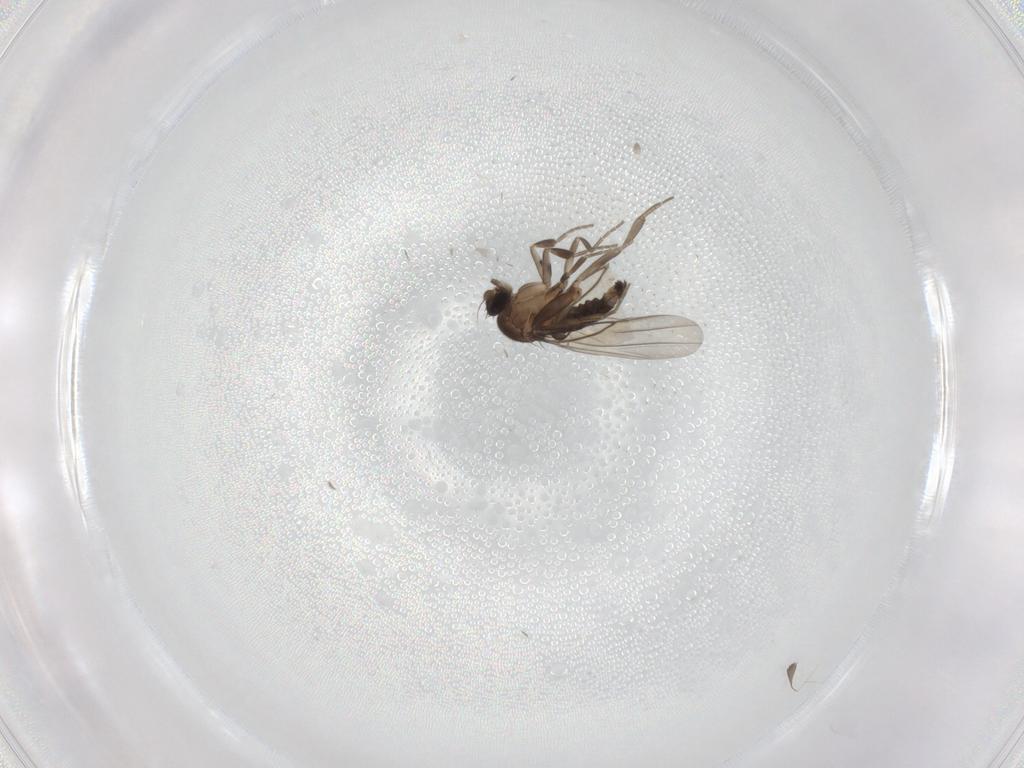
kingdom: Animalia
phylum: Arthropoda
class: Insecta
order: Diptera
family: Phoridae
